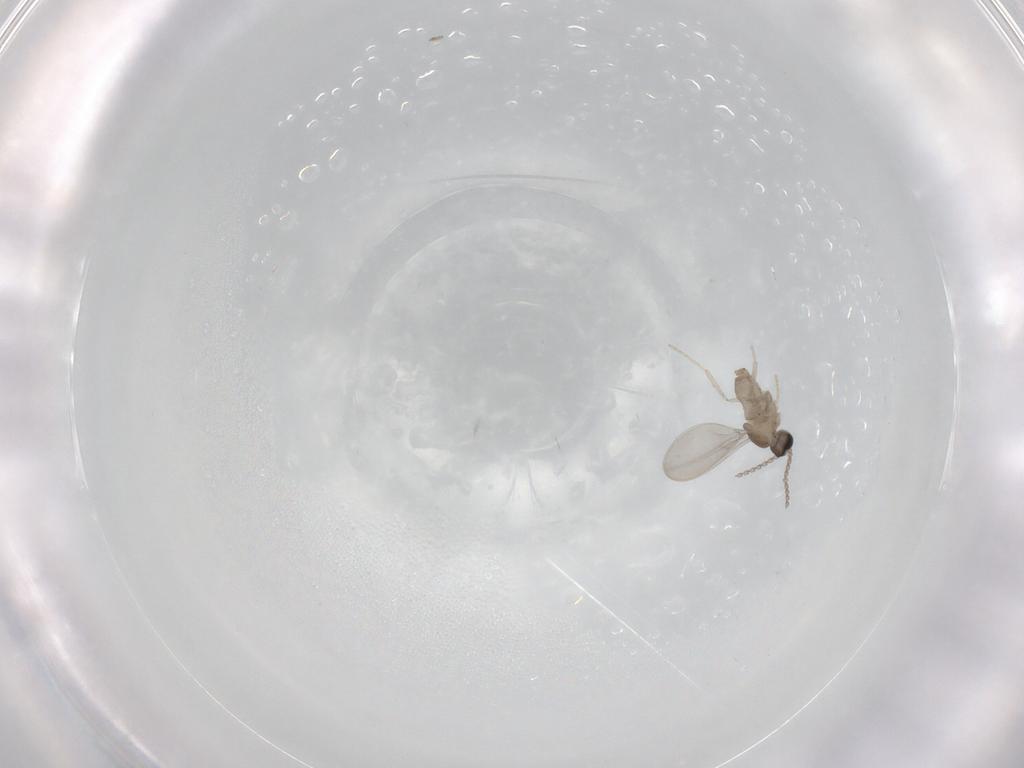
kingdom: Animalia
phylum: Arthropoda
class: Insecta
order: Diptera
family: Cecidomyiidae
